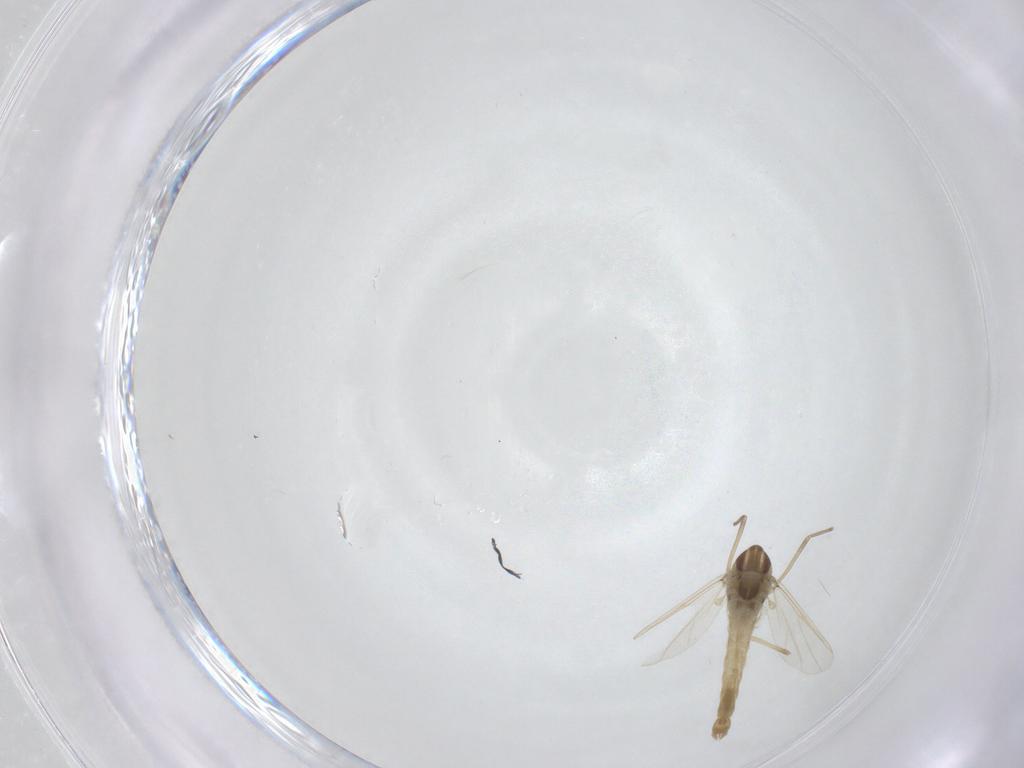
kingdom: Animalia
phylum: Arthropoda
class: Insecta
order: Diptera
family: Chironomidae
